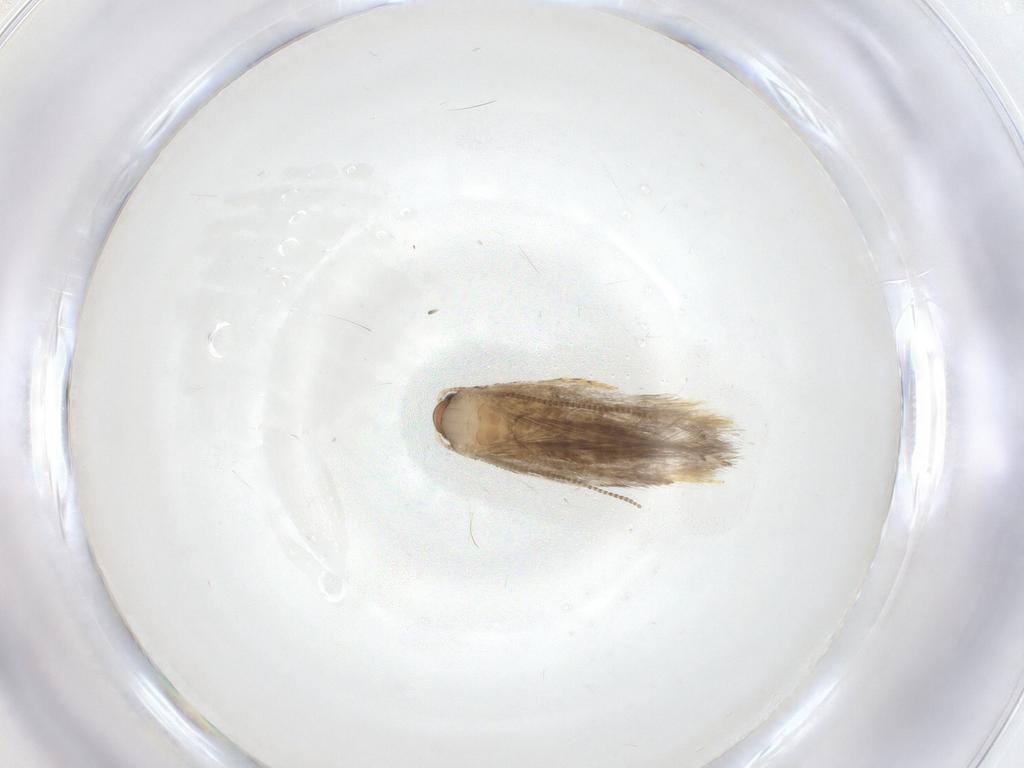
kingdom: Animalia
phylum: Arthropoda
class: Insecta
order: Lepidoptera
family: Tineidae
